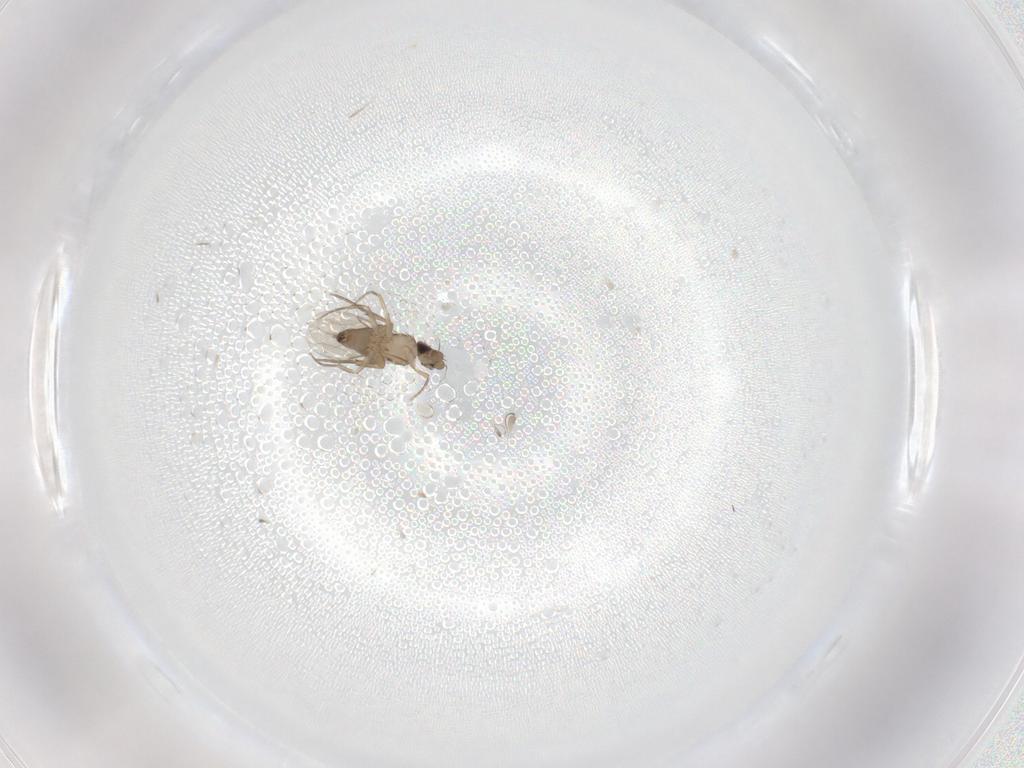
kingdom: Animalia
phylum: Arthropoda
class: Insecta
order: Diptera
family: Phoridae
